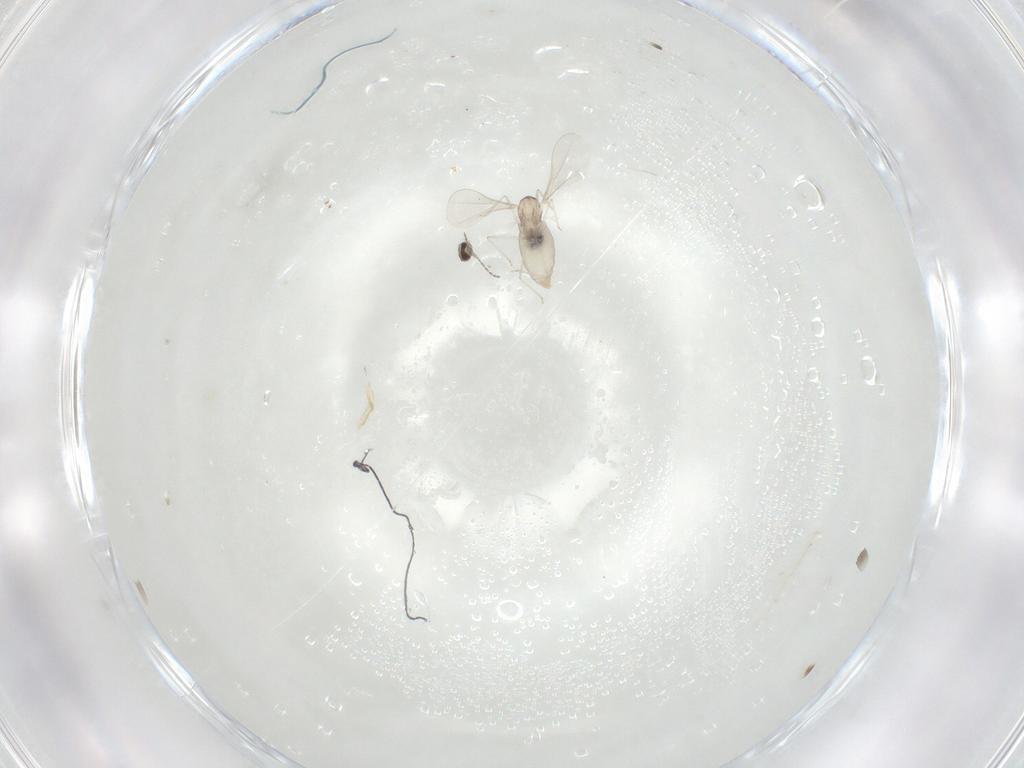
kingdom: Animalia
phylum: Arthropoda
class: Insecta
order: Diptera
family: Cecidomyiidae
